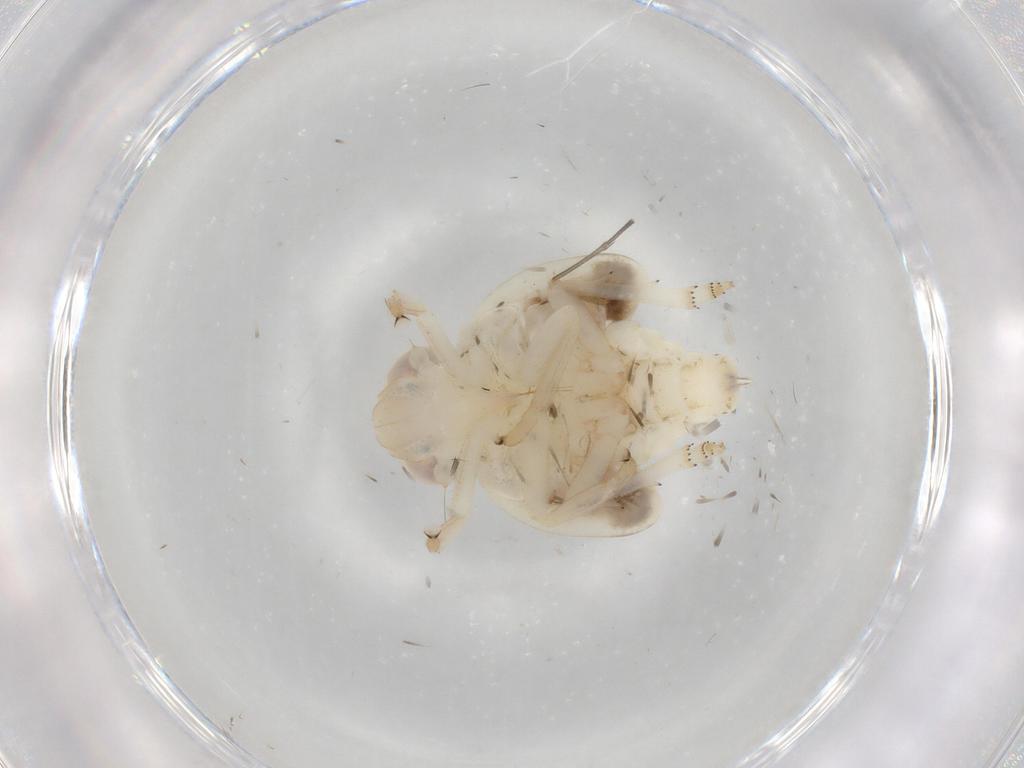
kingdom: Animalia
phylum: Arthropoda
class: Insecta
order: Hemiptera
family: Nogodinidae
